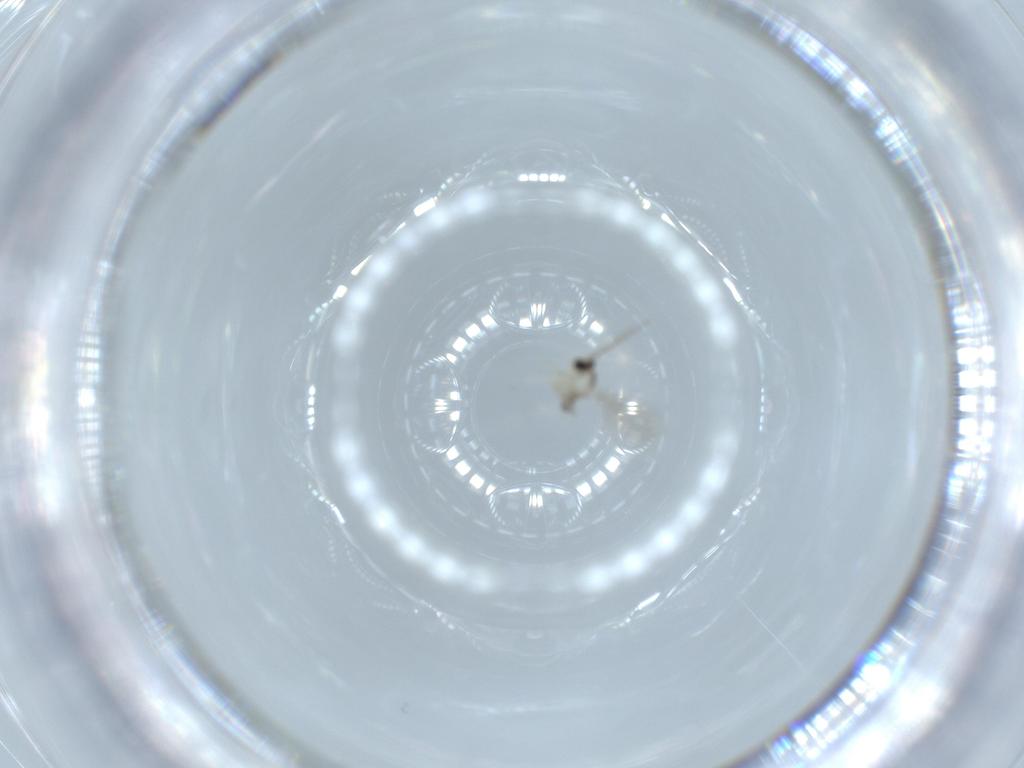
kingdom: Animalia
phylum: Arthropoda
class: Insecta
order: Diptera
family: Cecidomyiidae
